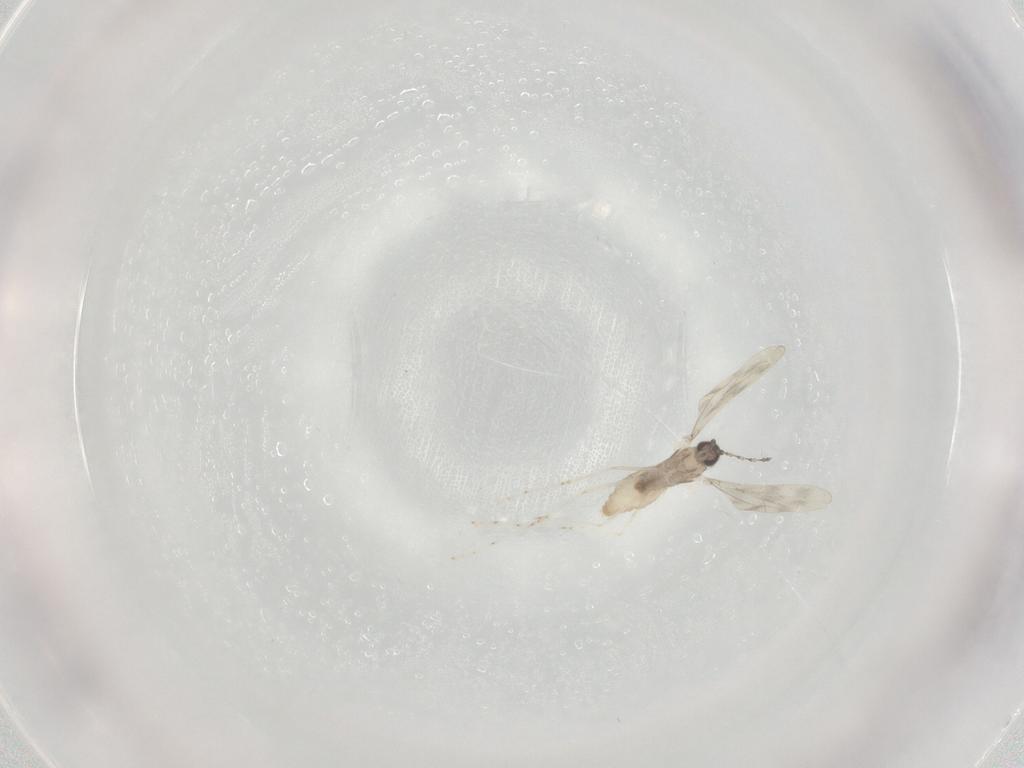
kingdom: Animalia
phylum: Arthropoda
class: Insecta
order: Diptera
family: Cecidomyiidae
